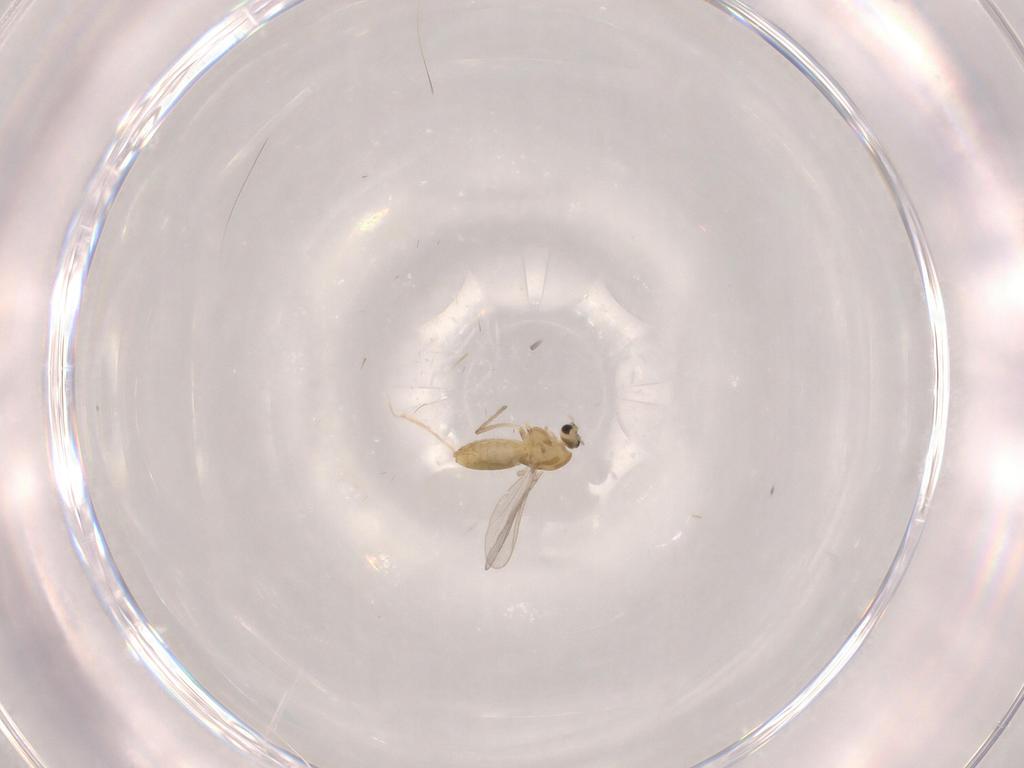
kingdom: Animalia
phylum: Arthropoda
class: Insecta
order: Diptera
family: Chironomidae
